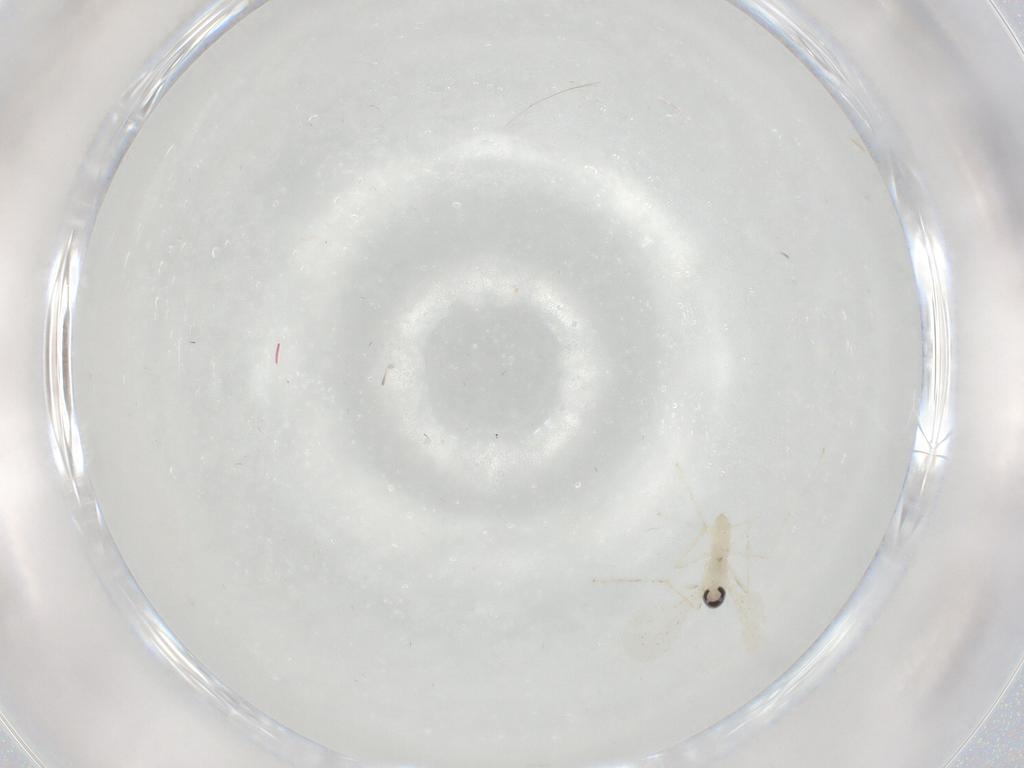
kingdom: Animalia
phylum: Arthropoda
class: Insecta
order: Diptera
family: Cecidomyiidae
